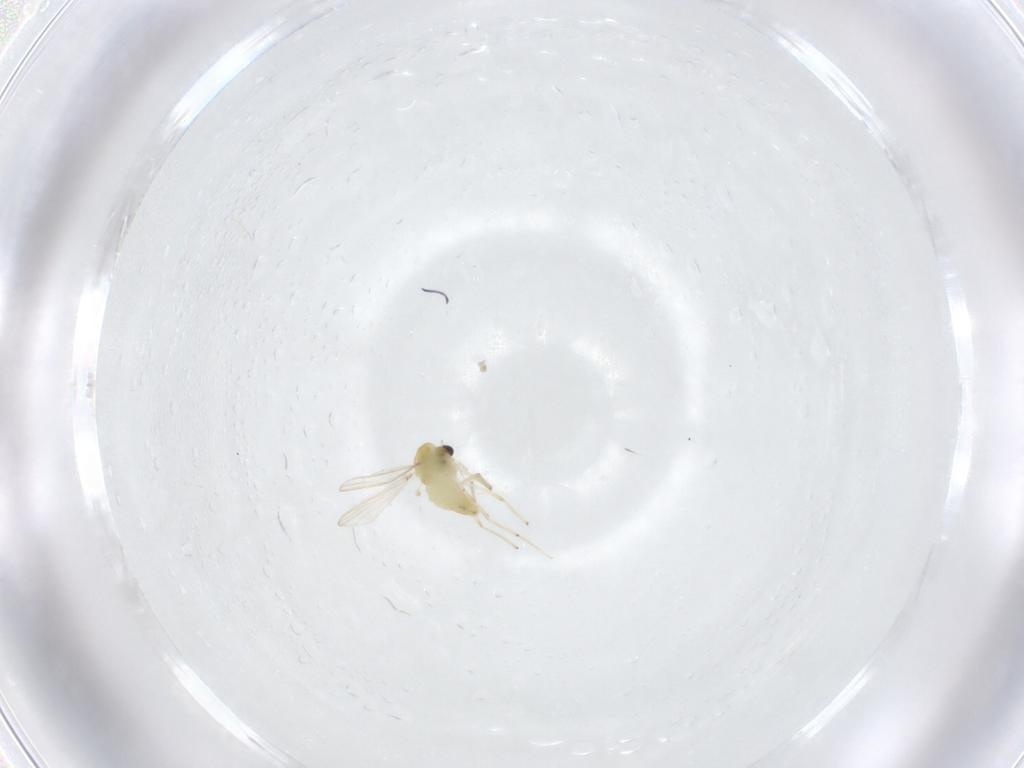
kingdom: Animalia
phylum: Arthropoda
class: Insecta
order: Diptera
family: Chironomidae
